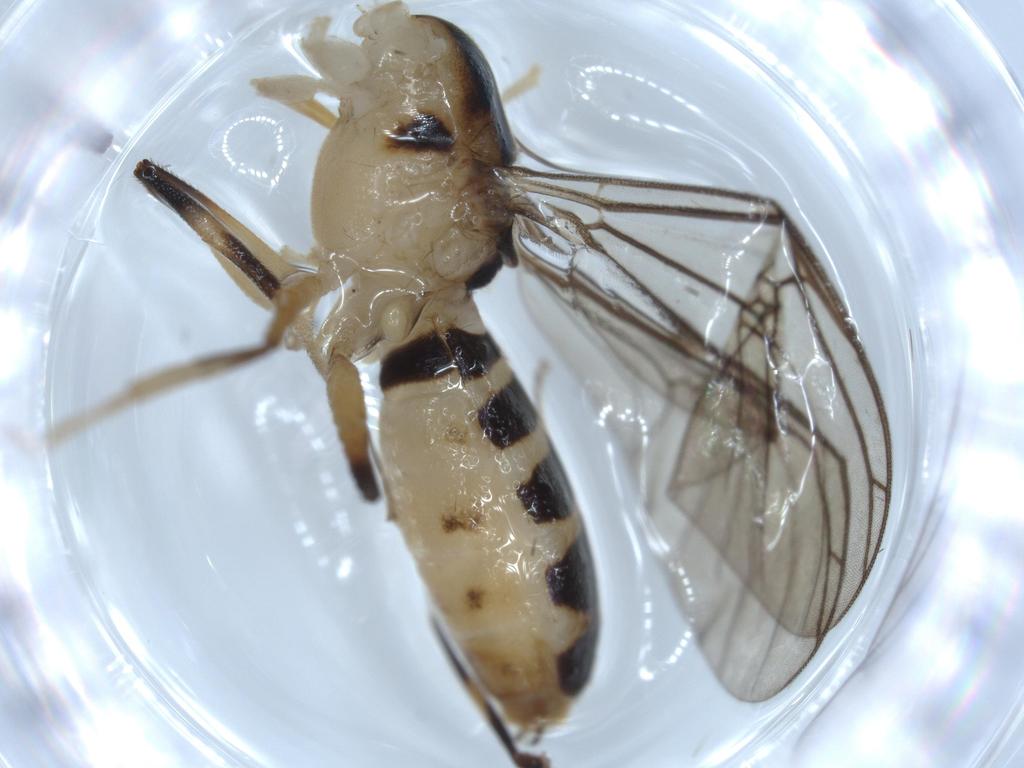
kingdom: Animalia
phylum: Arthropoda
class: Insecta
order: Diptera
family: Stratiomyidae
